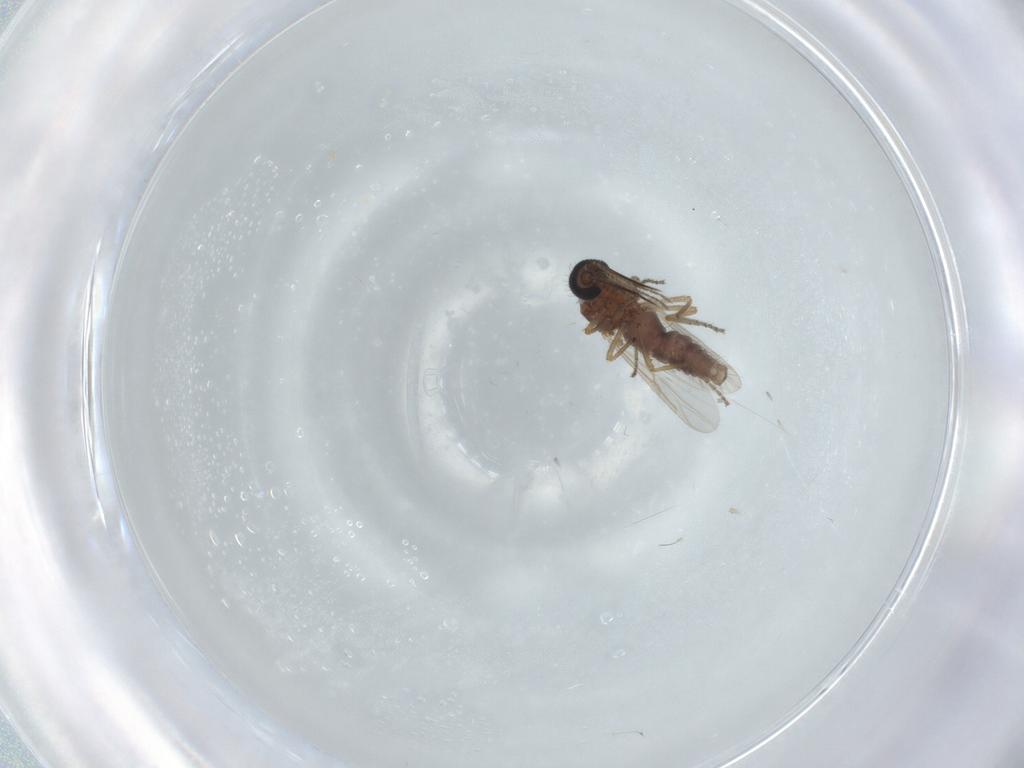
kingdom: Animalia
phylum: Arthropoda
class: Insecta
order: Diptera
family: Ceratopogonidae
